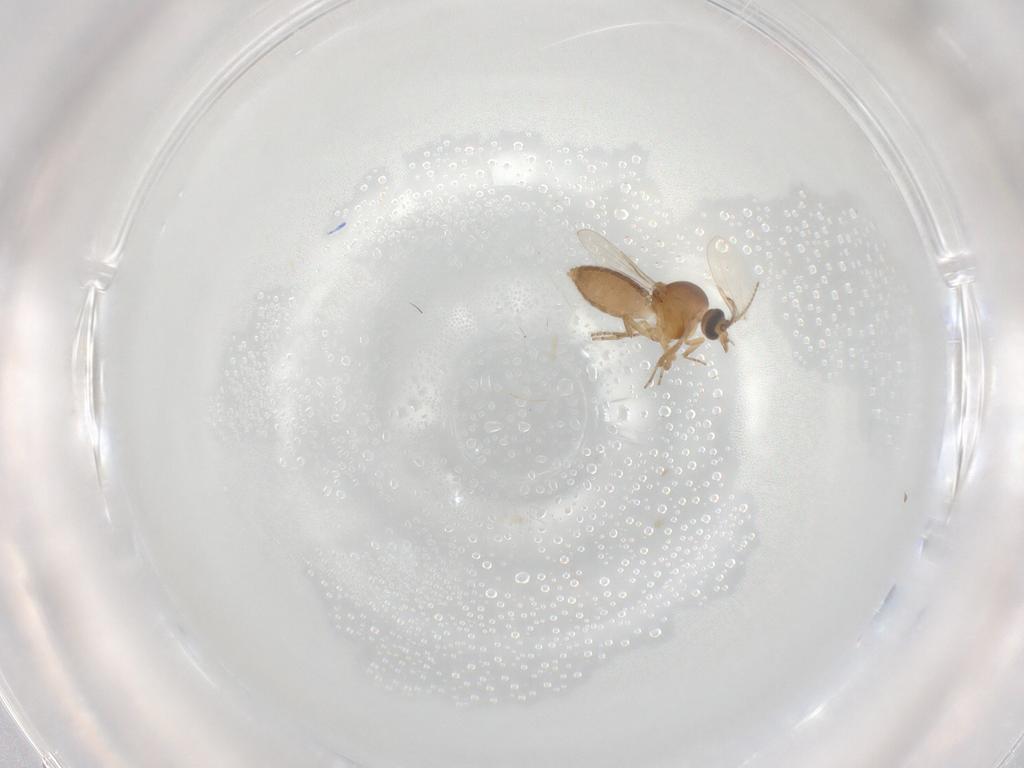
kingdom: Animalia
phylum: Arthropoda
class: Insecta
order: Diptera
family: Ceratopogonidae
